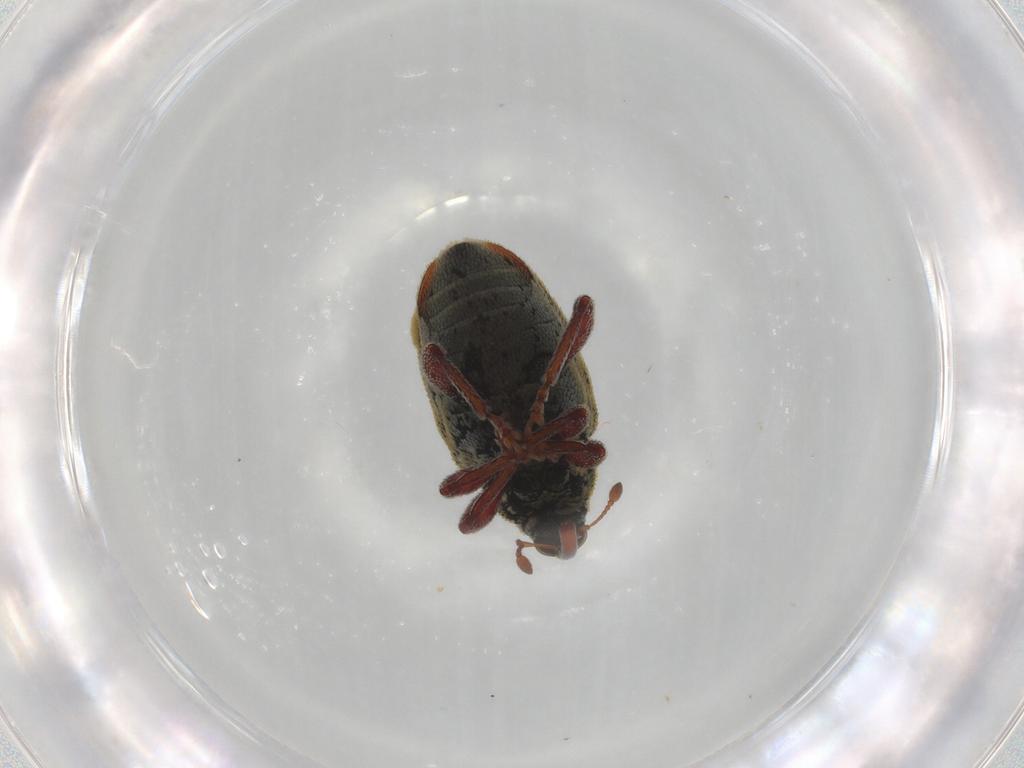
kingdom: Animalia
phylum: Arthropoda
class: Insecta
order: Coleoptera
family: Curculionidae
